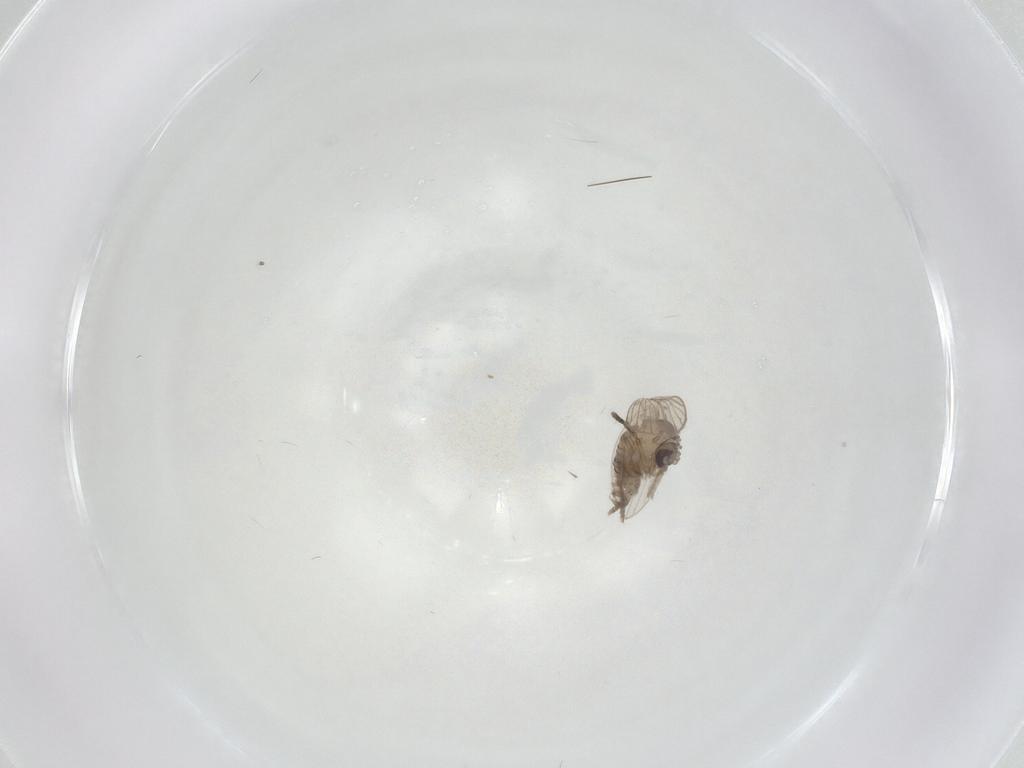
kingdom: Animalia
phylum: Arthropoda
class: Insecta
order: Diptera
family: Psychodidae
